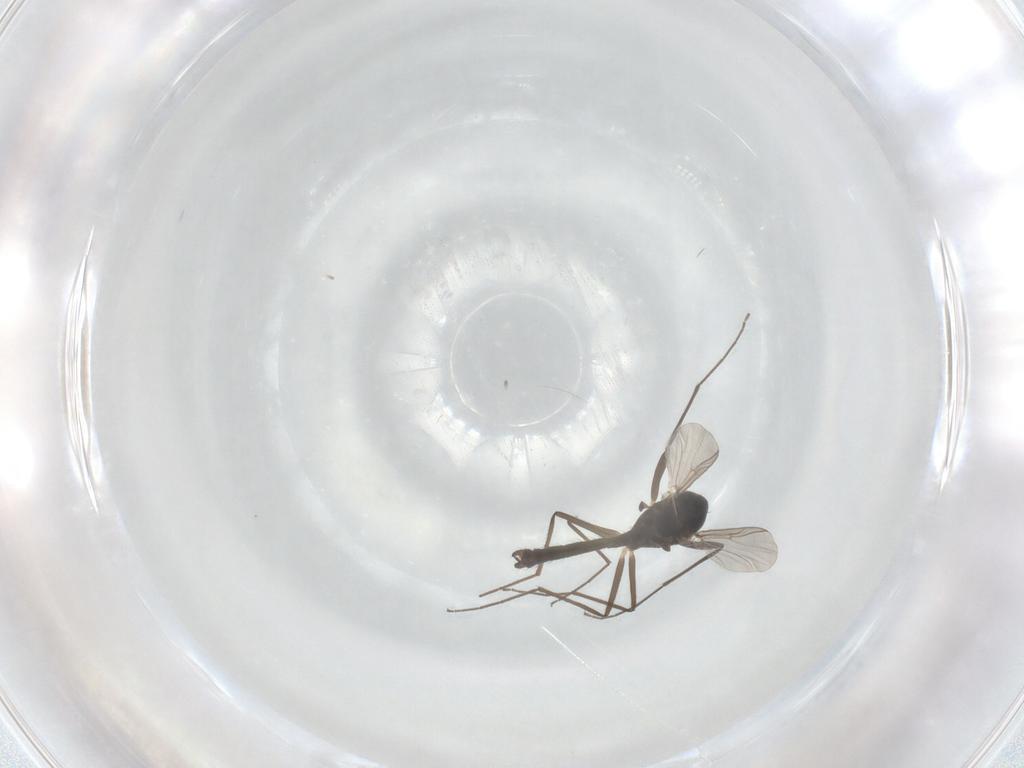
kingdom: Animalia
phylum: Arthropoda
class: Insecta
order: Diptera
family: Chironomidae
